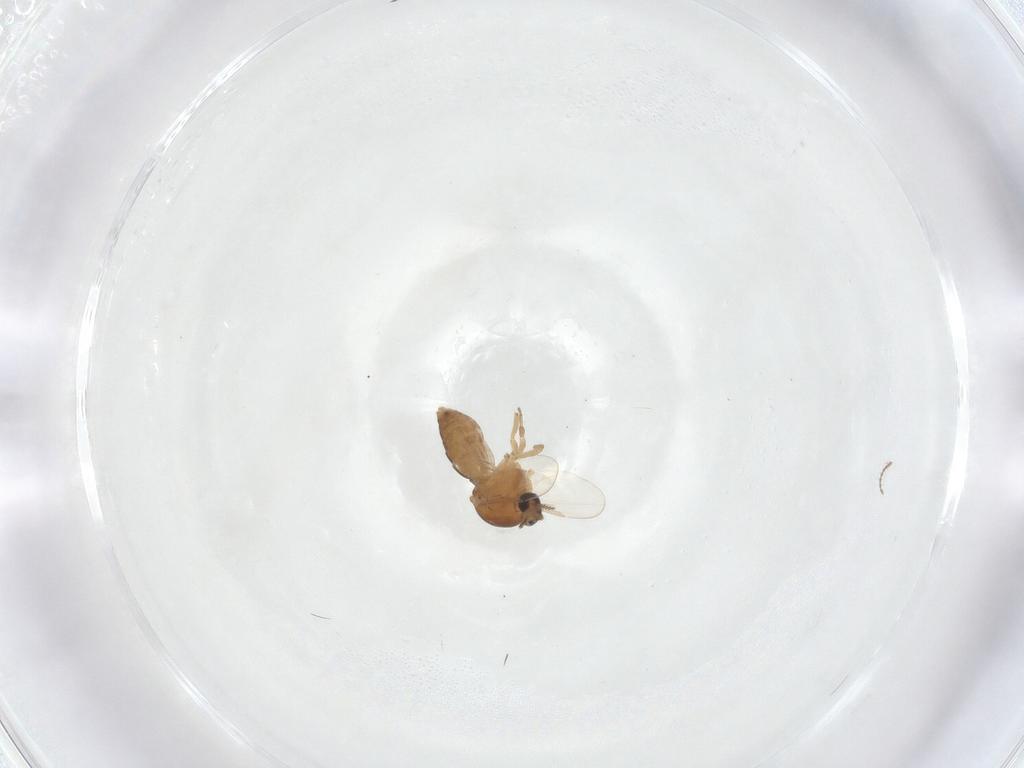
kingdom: Animalia
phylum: Arthropoda
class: Insecta
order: Diptera
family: Ceratopogonidae
